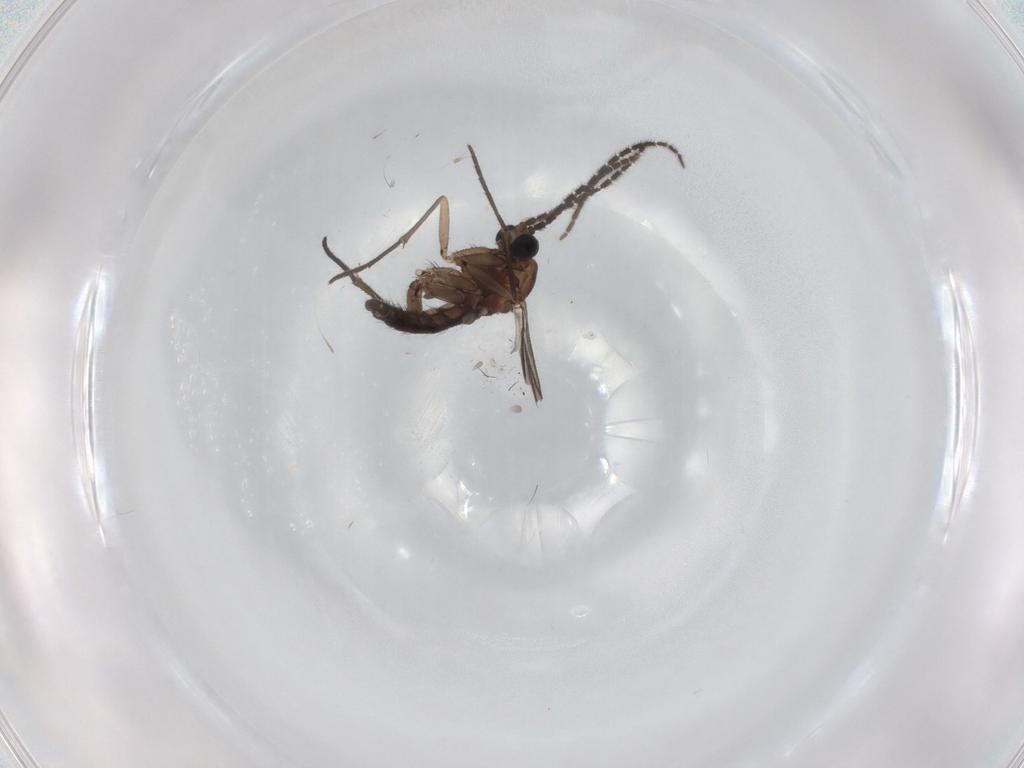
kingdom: Animalia
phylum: Arthropoda
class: Insecta
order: Diptera
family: Sciaridae
